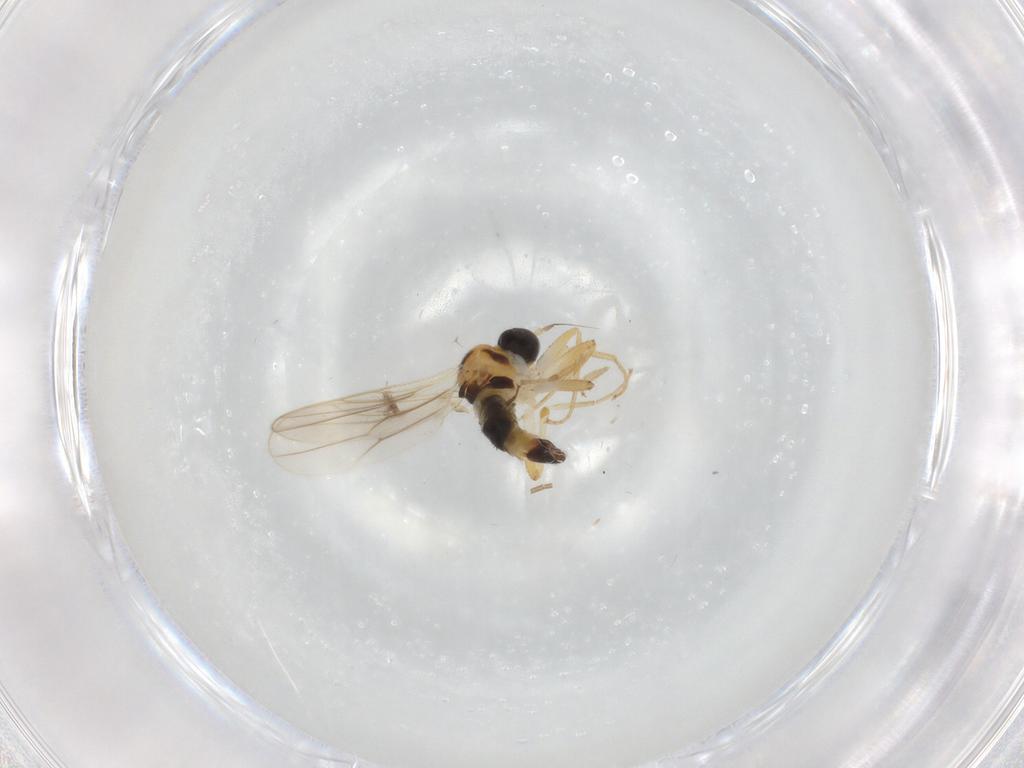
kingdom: Animalia
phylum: Arthropoda
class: Insecta
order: Diptera
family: Hybotidae
